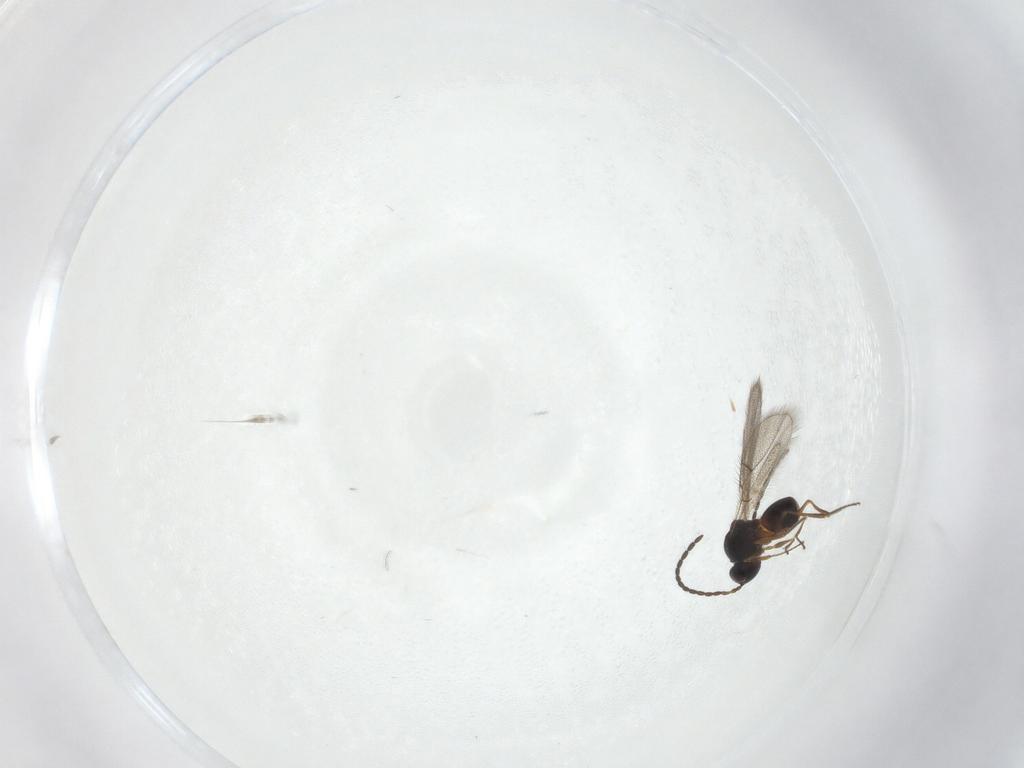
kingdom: Animalia
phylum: Arthropoda
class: Insecta
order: Hymenoptera
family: Figitidae
